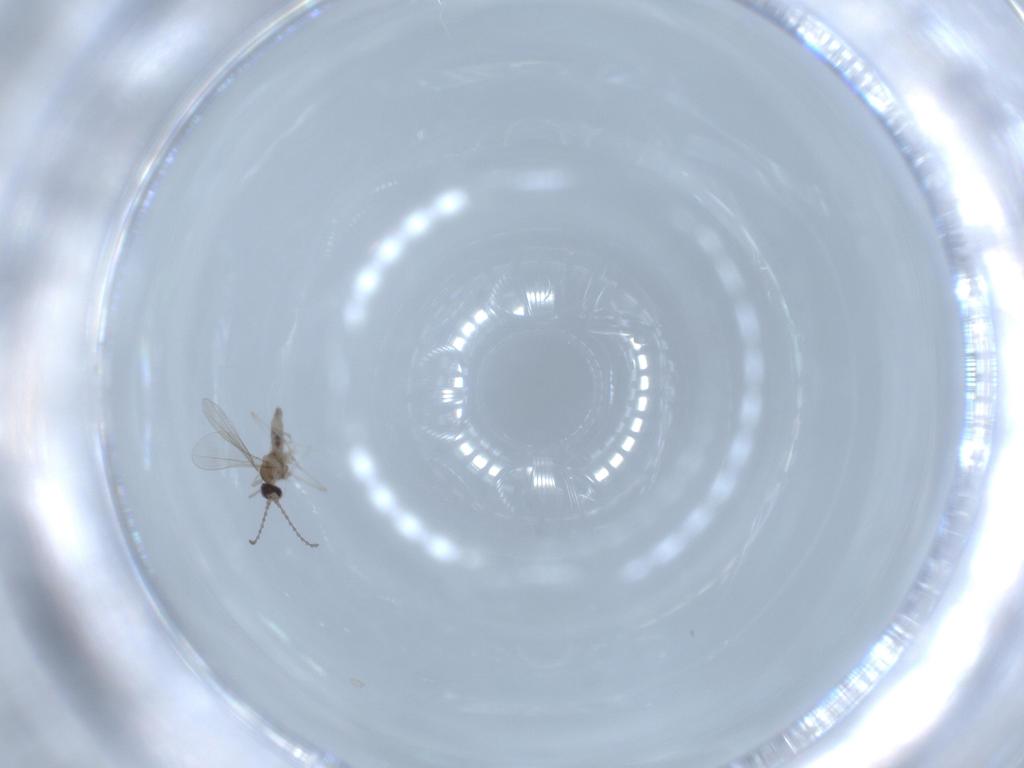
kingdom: Animalia
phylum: Arthropoda
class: Insecta
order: Diptera
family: Cecidomyiidae
